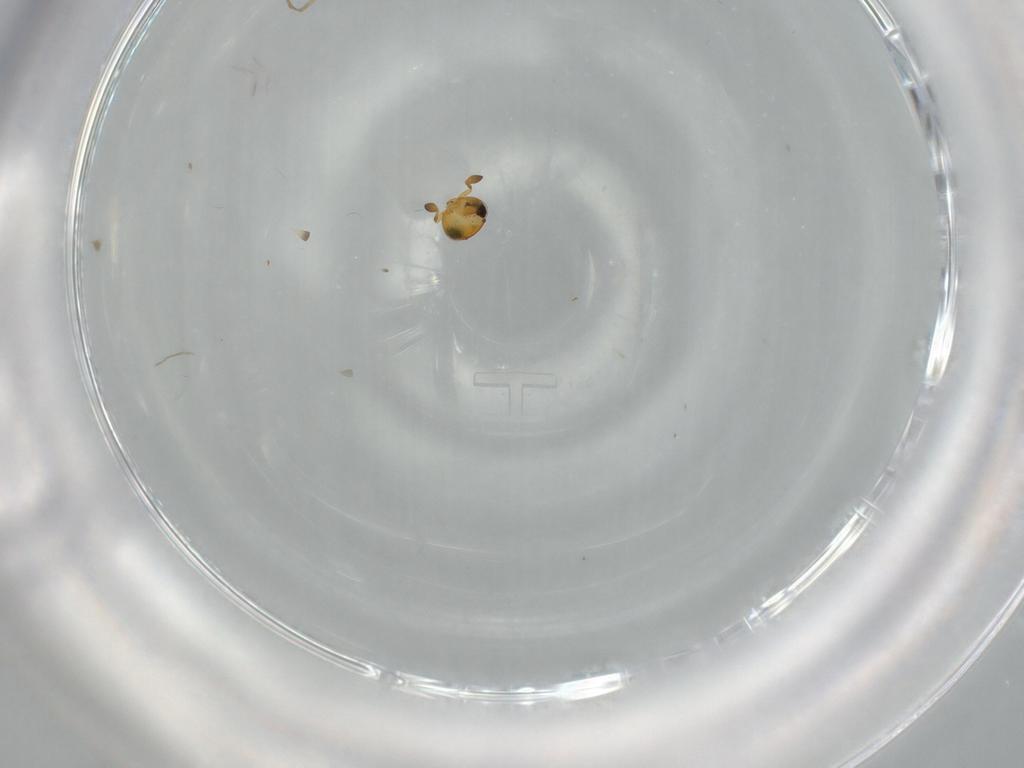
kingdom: Animalia
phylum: Arthropoda
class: Insecta
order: Hymenoptera
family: Scelionidae
